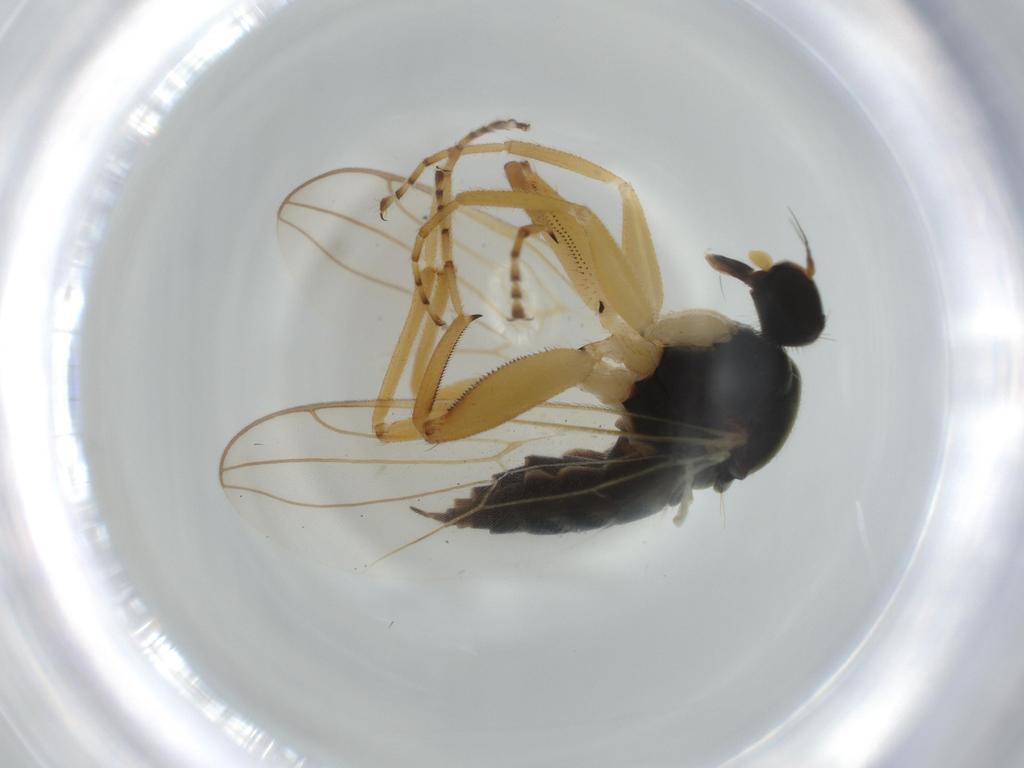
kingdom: Animalia
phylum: Arthropoda
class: Insecta
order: Diptera
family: Hybotidae
